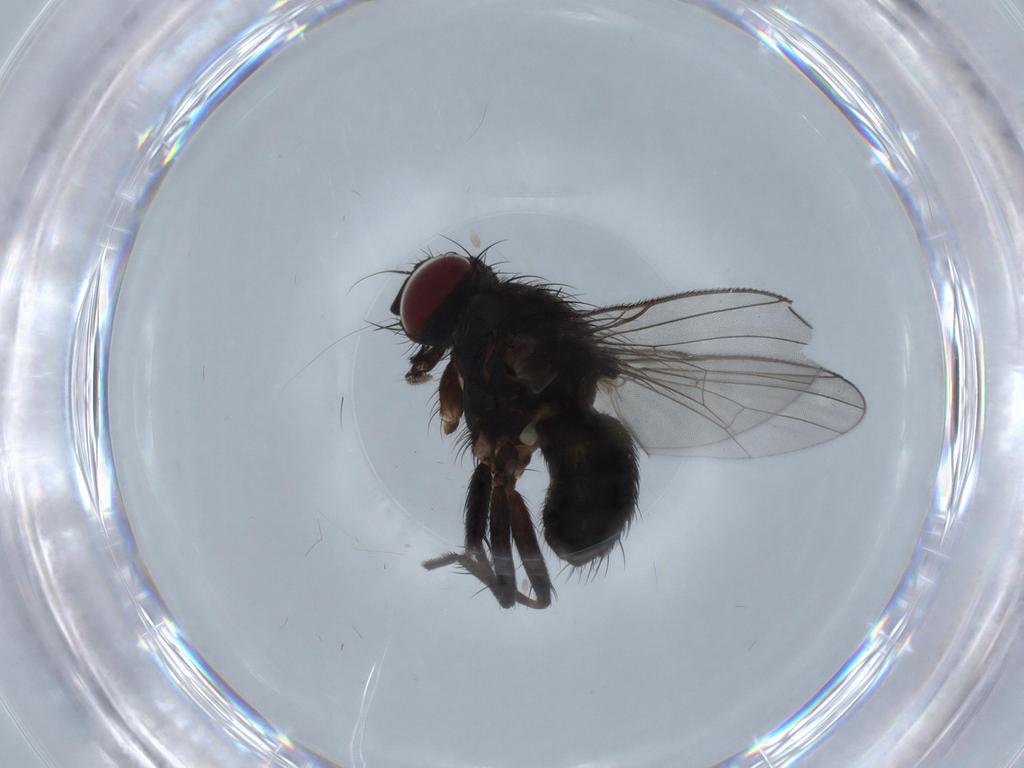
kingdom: Animalia
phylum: Arthropoda
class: Insecta
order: Diptera
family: Muscidae
